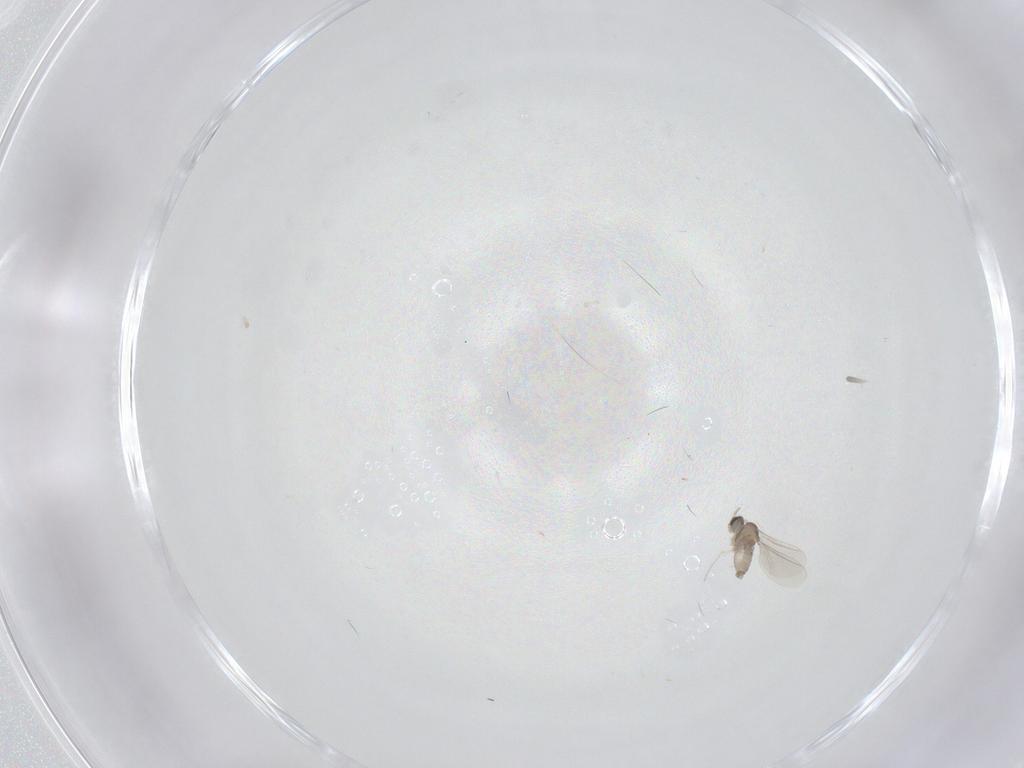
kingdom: Animalia
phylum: Arthropoda
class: Insecta
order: Diptera
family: Cecidomyiidae
